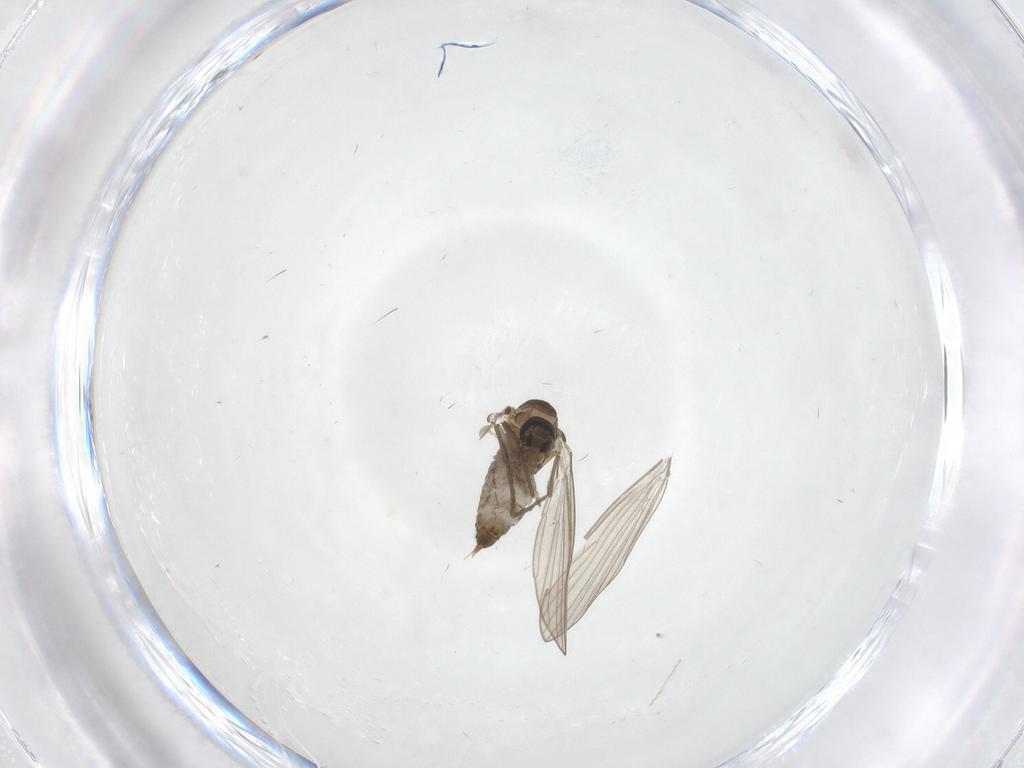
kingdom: Animalia
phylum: Arthropoda
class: Insecta
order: Diptera
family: Psychodidae
